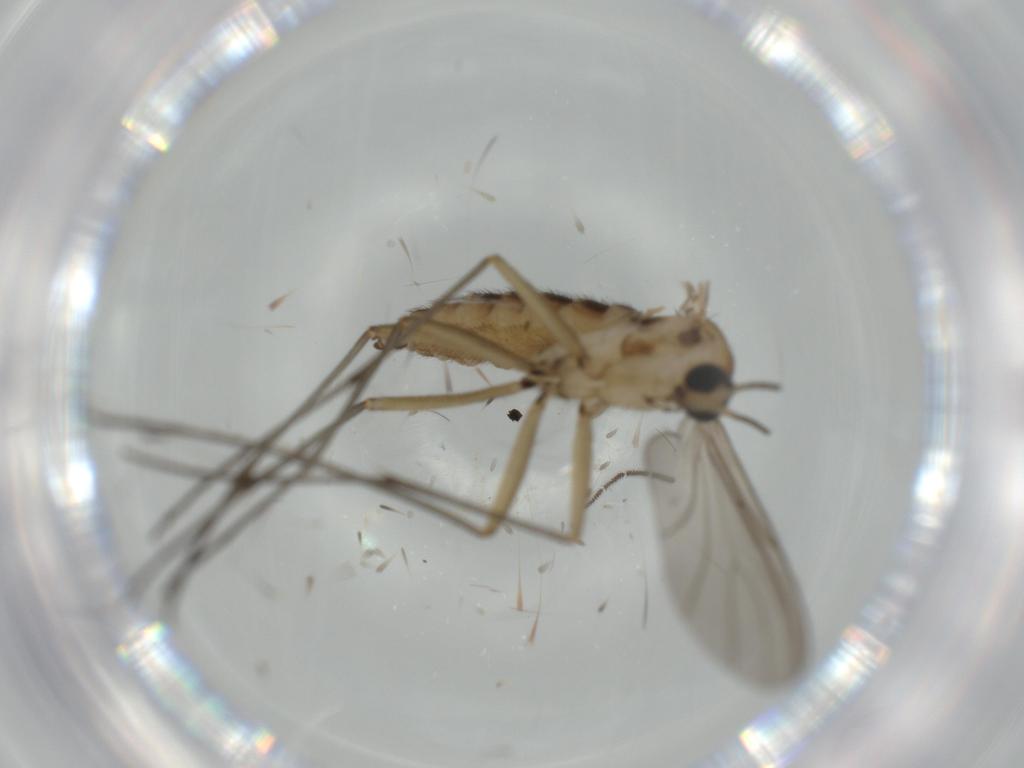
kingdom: Animalia
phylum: Arthropoda
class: Insecta
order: Diptera
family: Sciaridae
